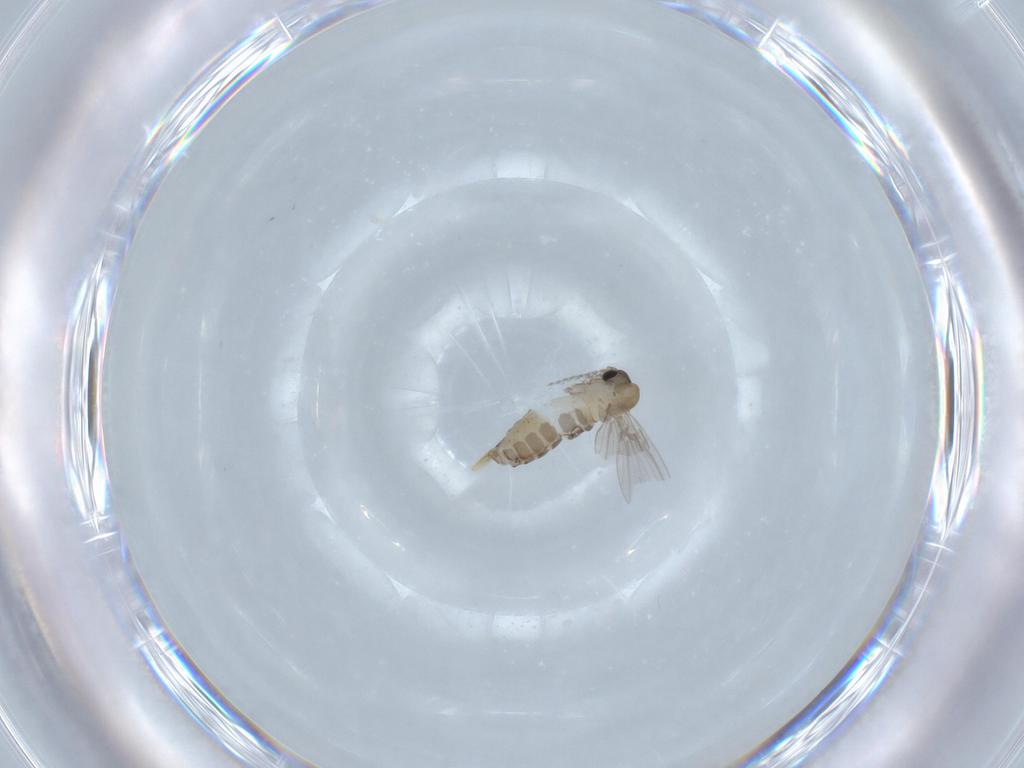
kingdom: Animalia
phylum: Arthropoda
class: Insecta
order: Diptera
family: Psychodidae
